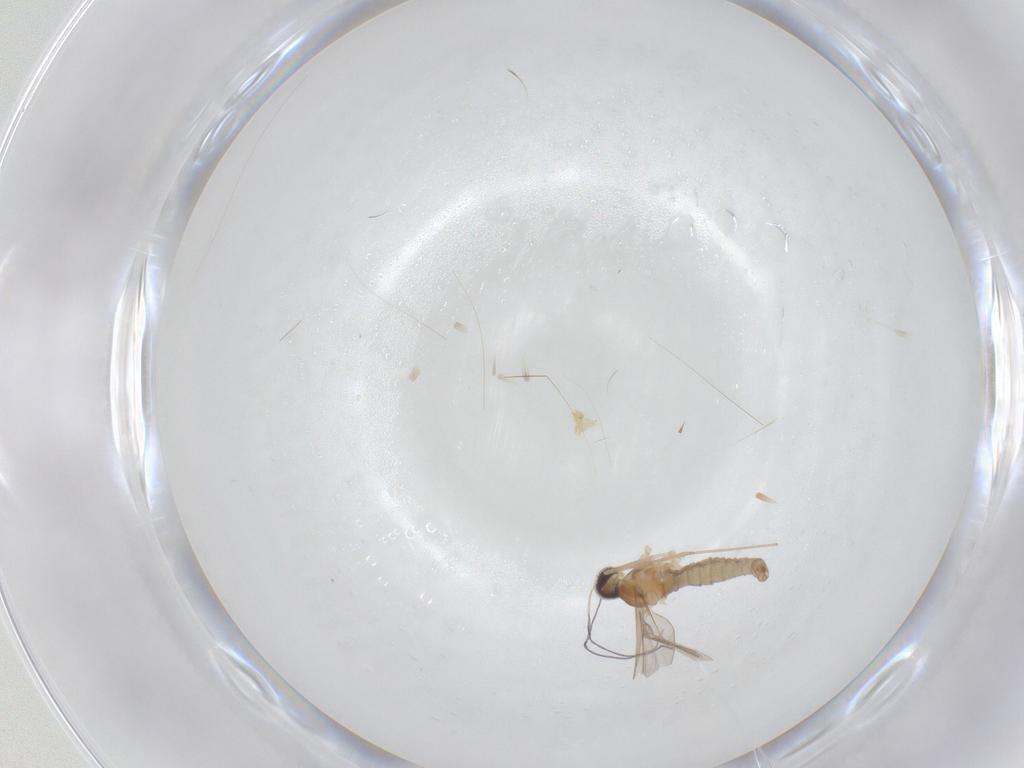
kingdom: Animalia
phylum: Arthropoda
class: Insecta
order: Diptera
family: Cecidomyiidae
